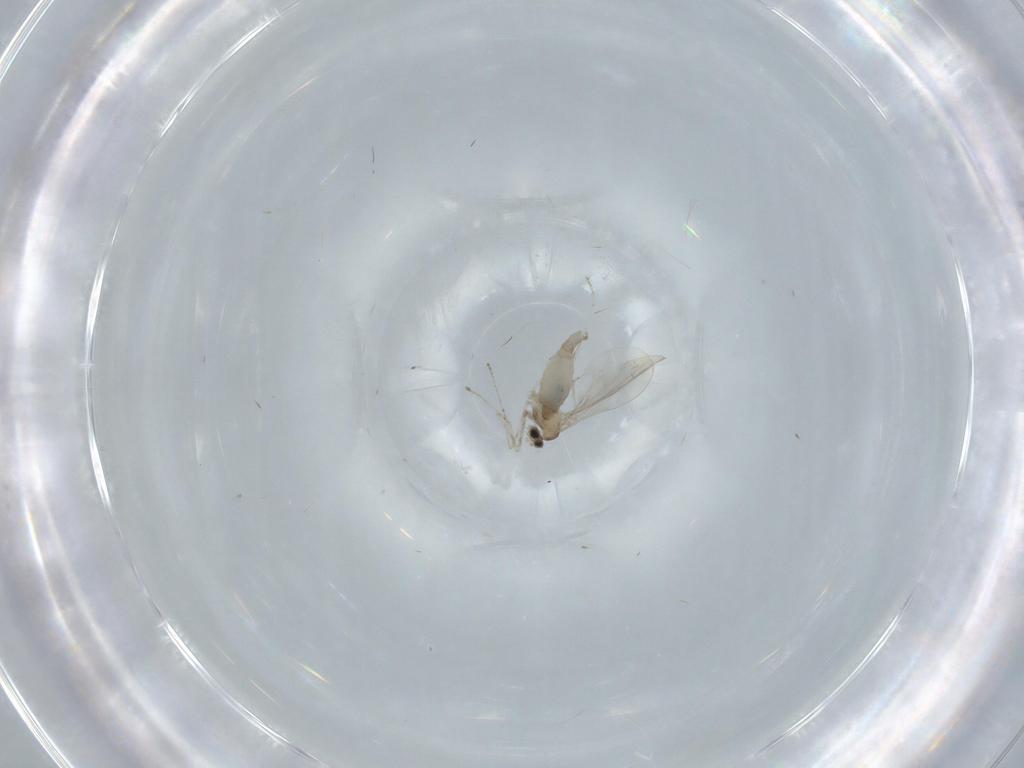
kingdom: Animalia
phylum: Arthropoda
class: Insecta
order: Diptera
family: Cecidomyiidae
